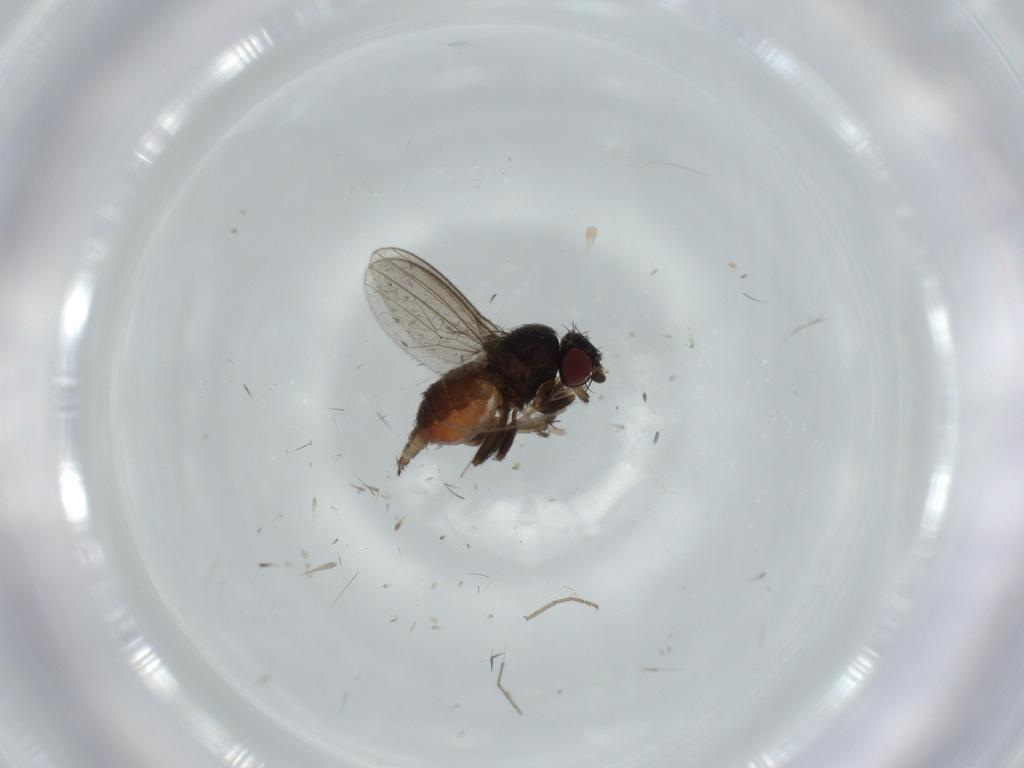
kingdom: Animalia
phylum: Arthropoda
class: Insecta
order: Diptera
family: Milichiidae
